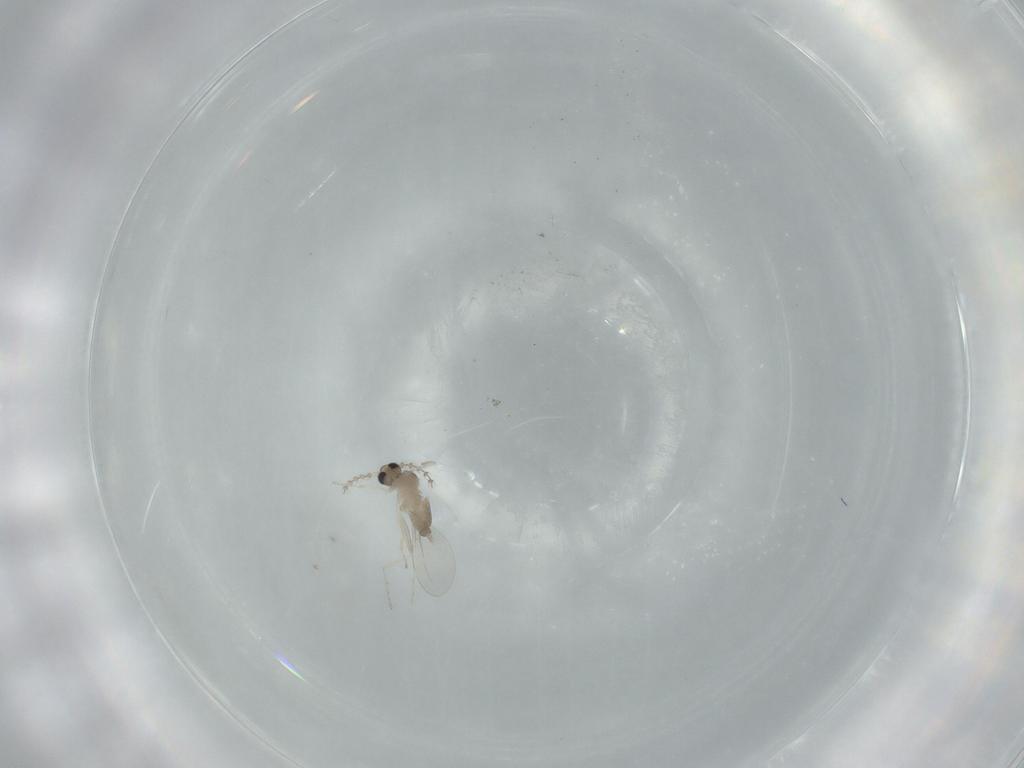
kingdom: Animalia
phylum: Arthropoda
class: Insecta
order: Diptera
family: Cecidomyiidae
